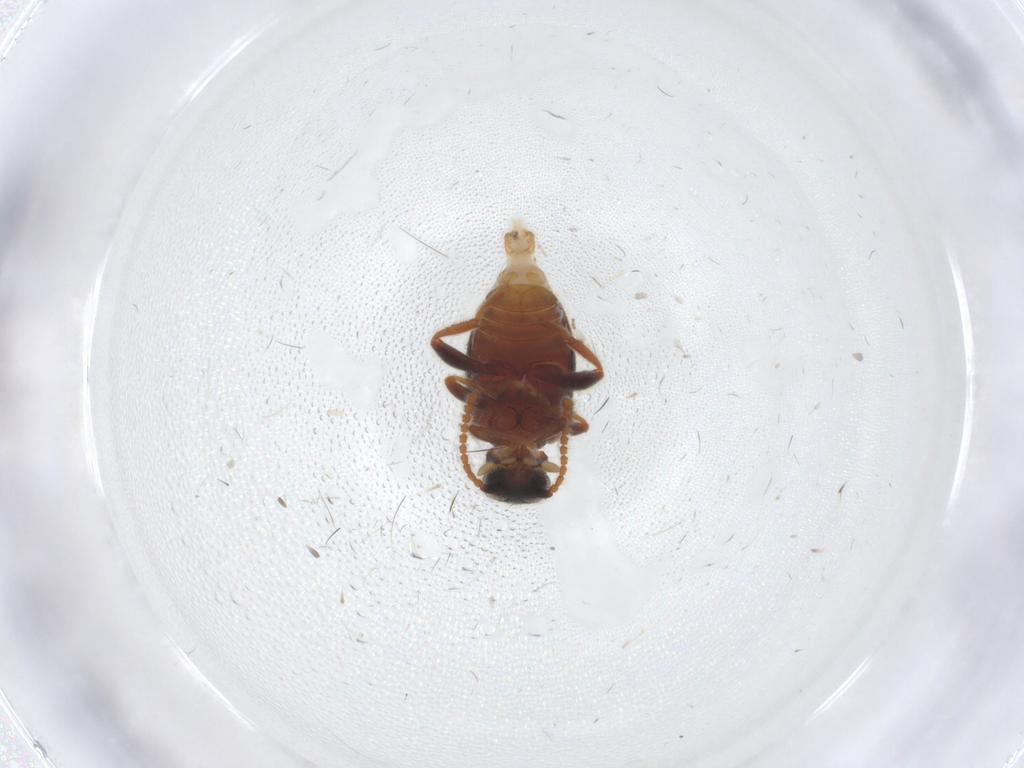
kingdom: Animalia
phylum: Arthropoda
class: Insecta
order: Coleoptera
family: Aderidae
